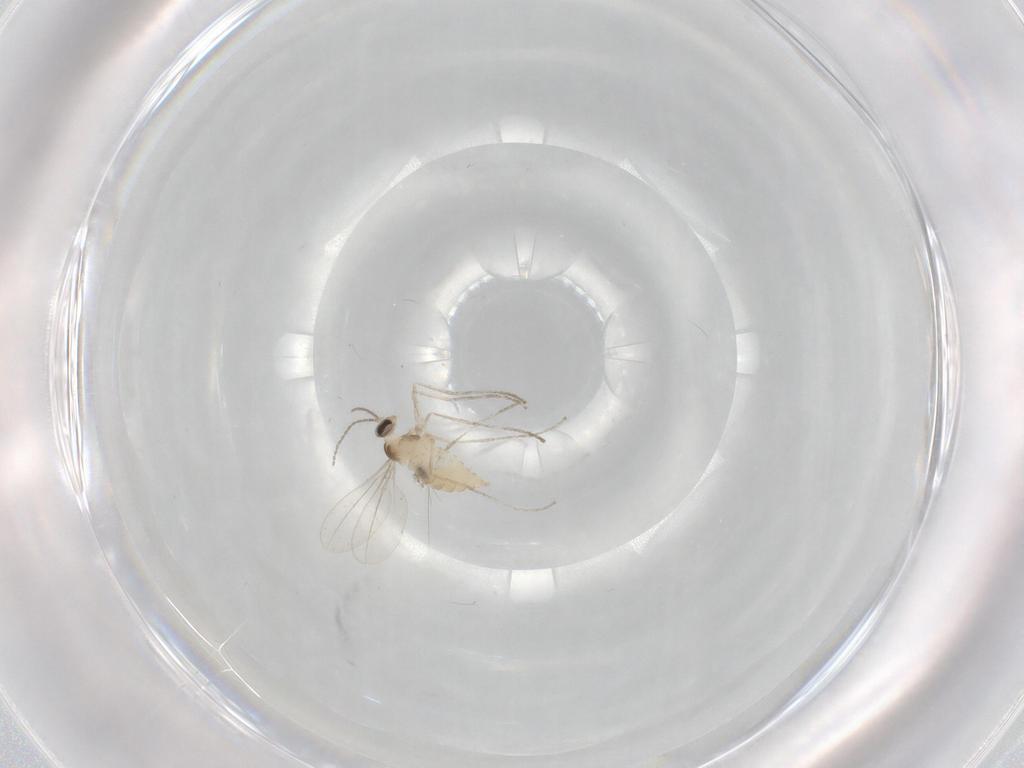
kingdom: Animalia
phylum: Arthropoda
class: Insecta
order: Diptera
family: Cecidomyiidae
